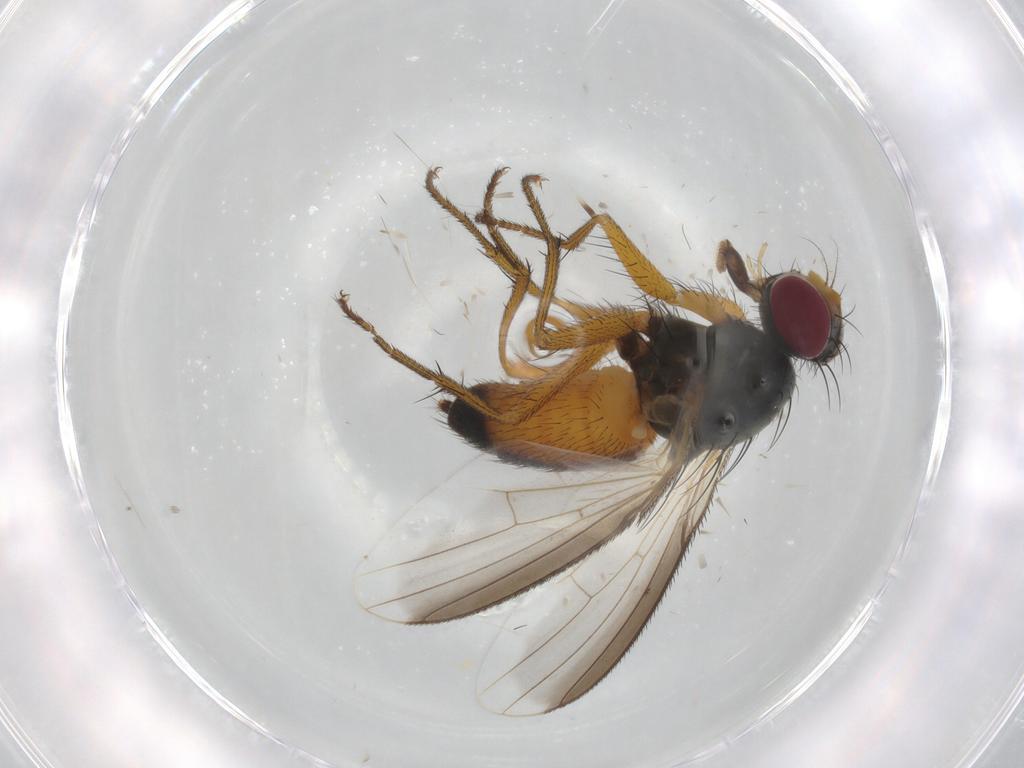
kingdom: Animalia
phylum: Arthropoda
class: Insecta
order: Diptera
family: Muscidae
